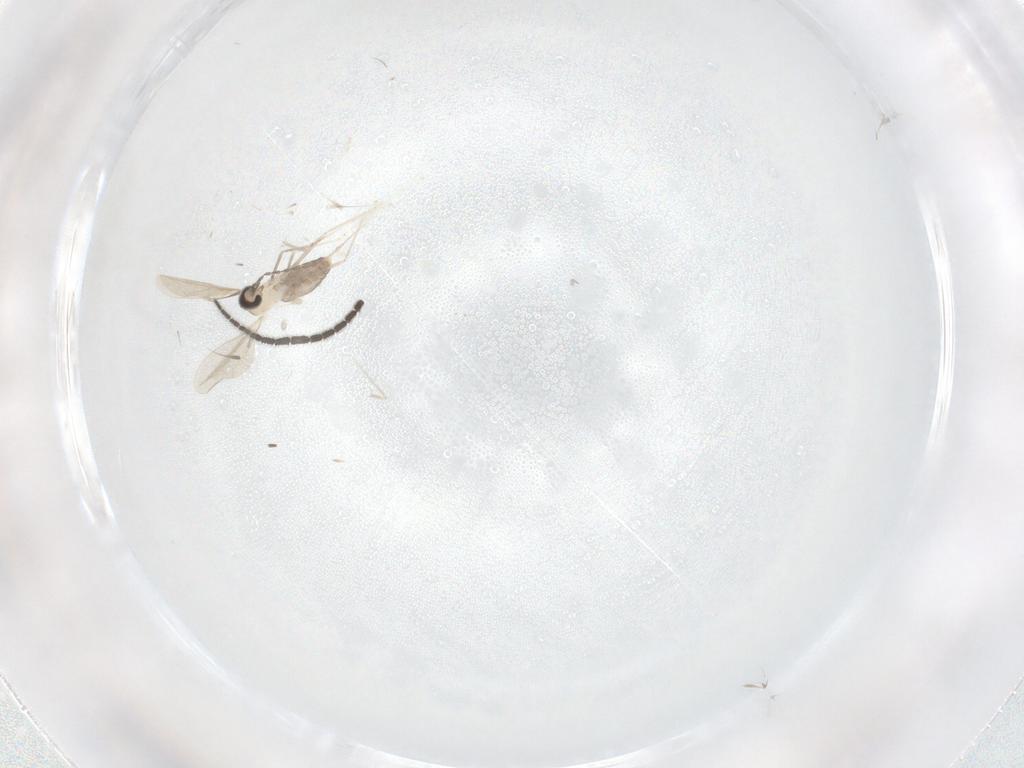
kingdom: Animalia
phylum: Arthropoda
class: Insecta
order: Diptera
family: Cecidomyiidae
